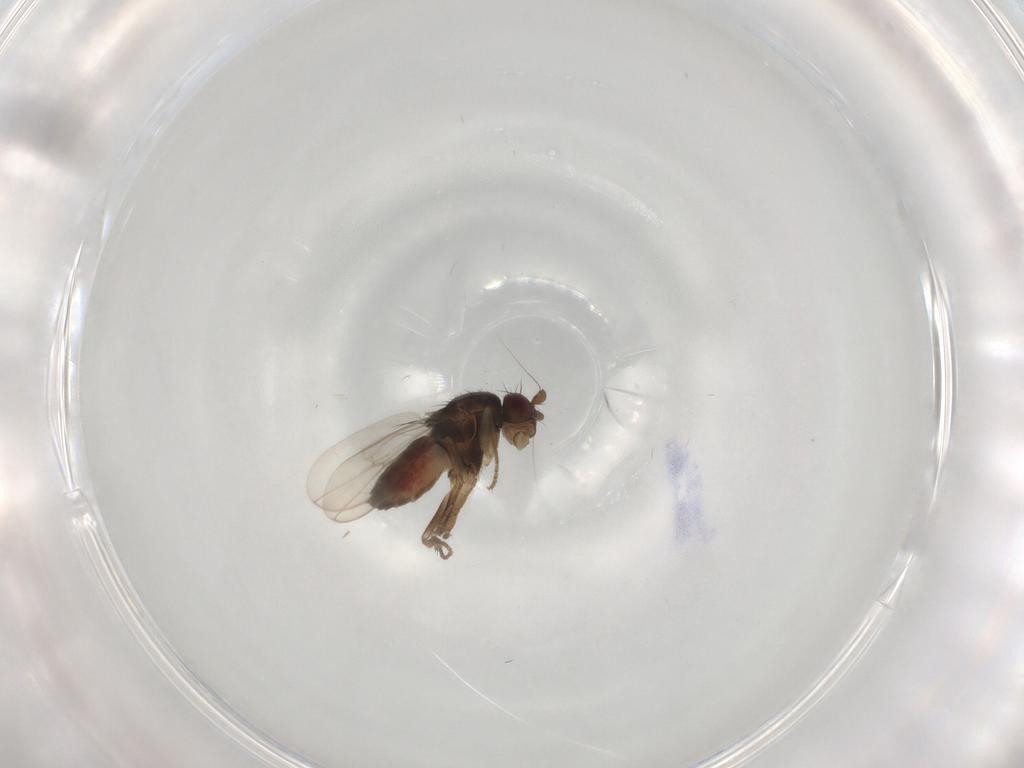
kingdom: Animalia
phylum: Arthropoda
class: Insecta
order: Diptera
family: Sphaeroceridae
